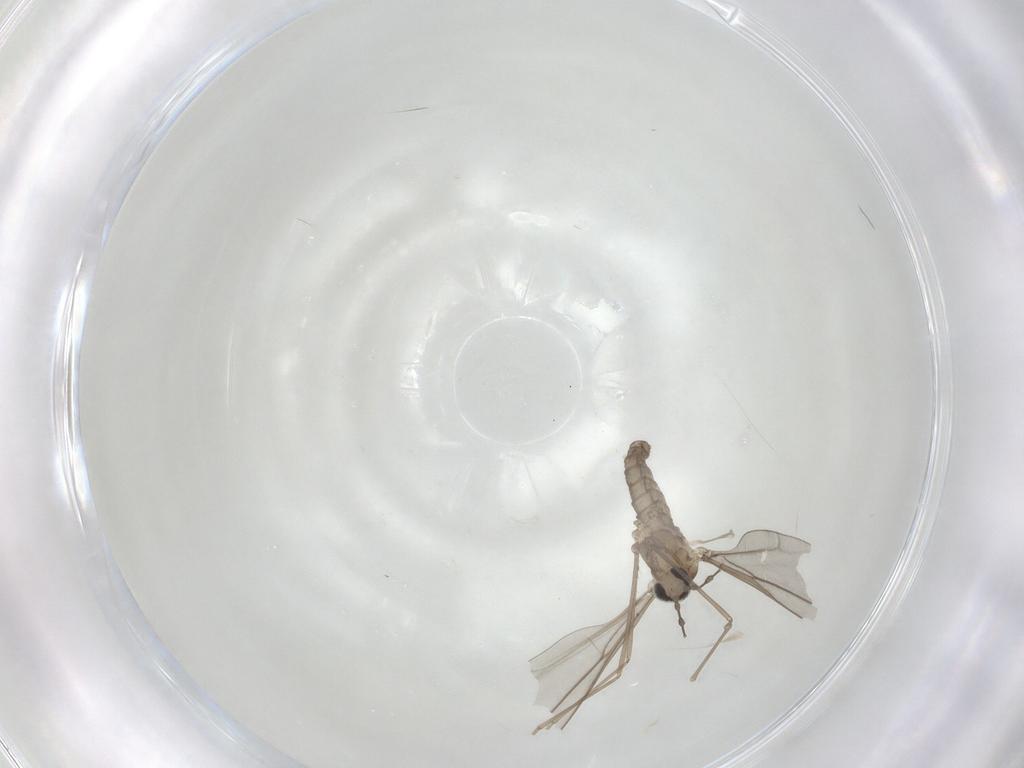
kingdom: Animalia
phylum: Arthropoda
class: Insecta
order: Diptera
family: Cecidomyiidae
